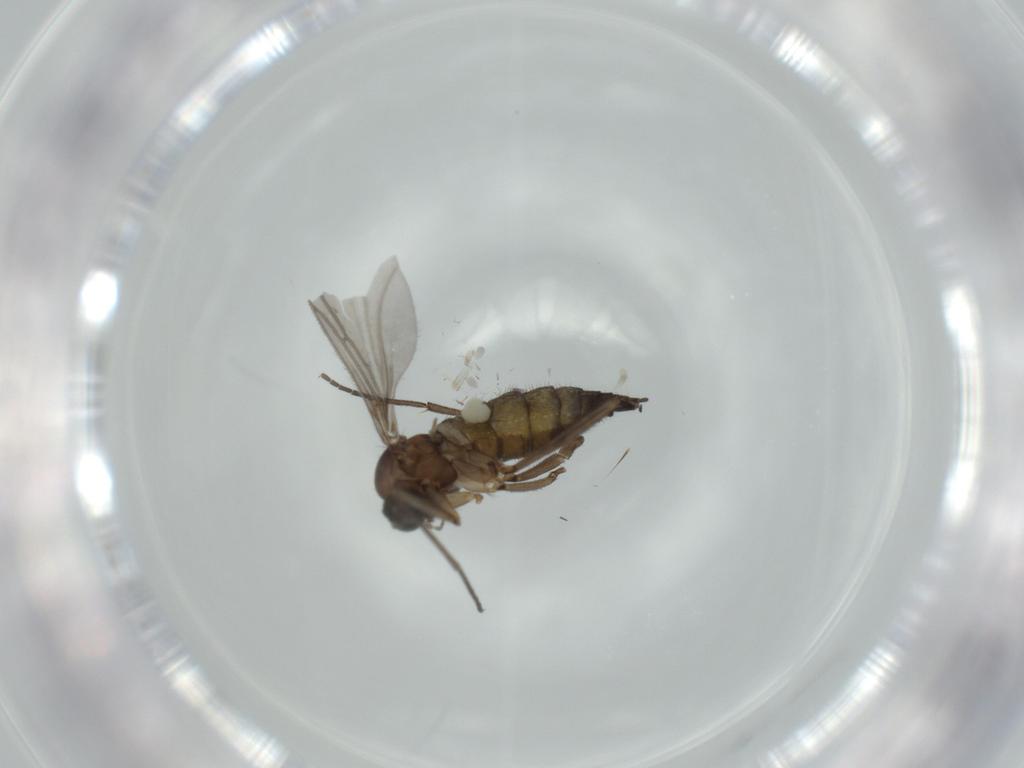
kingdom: Animalia
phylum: Arthropoda
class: Insecta
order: Diptera
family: Sciaridae
